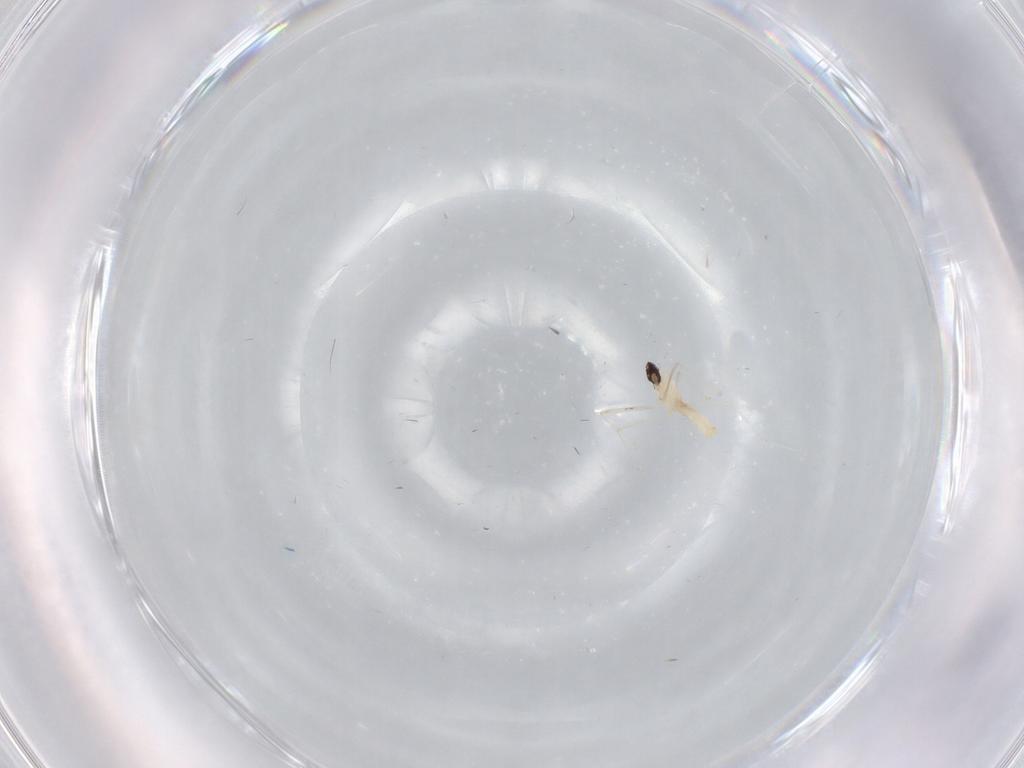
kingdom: Animalia
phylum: Arthropoda
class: Insecta
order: Diptera
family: Cecidomyiidae
